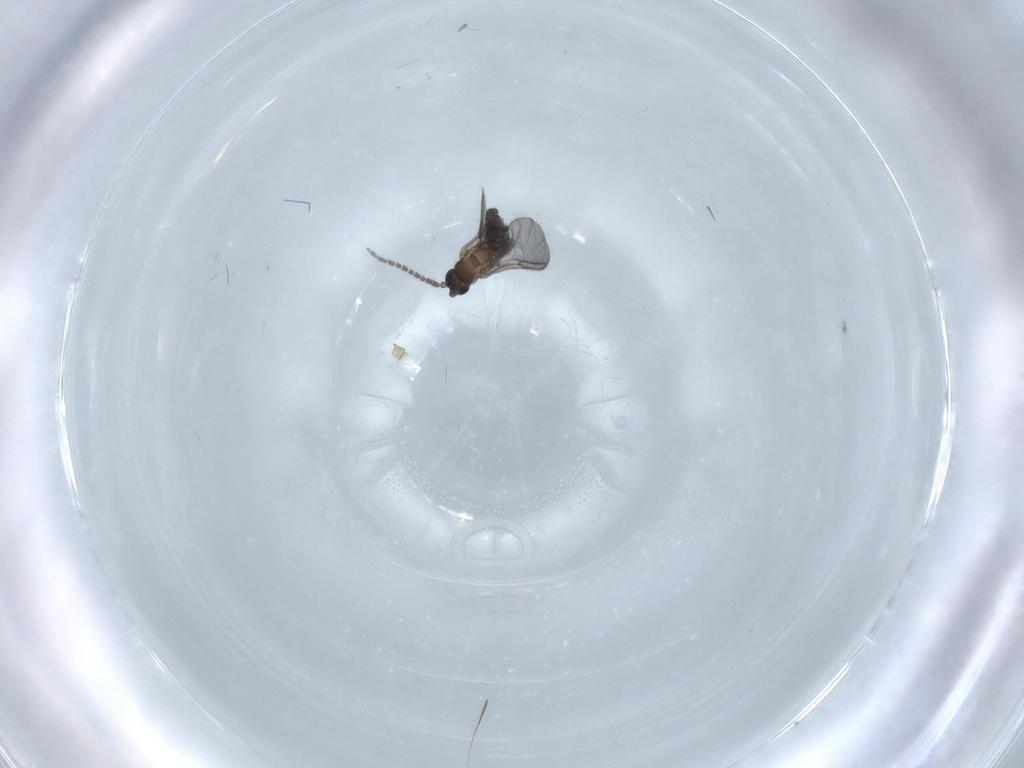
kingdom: Animalia
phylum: Arthropoda
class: Insecta
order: Diptera
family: Sciaridae
